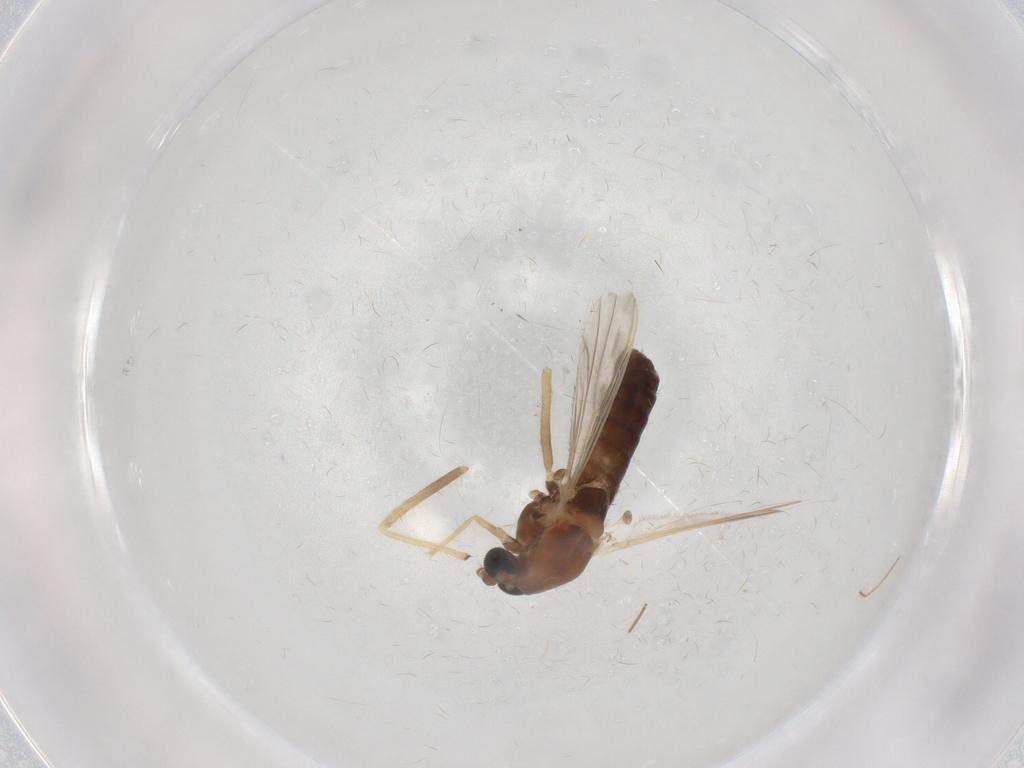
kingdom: Animalia
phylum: Arthropoda
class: Insecta
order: Diptera
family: Chironomidae
